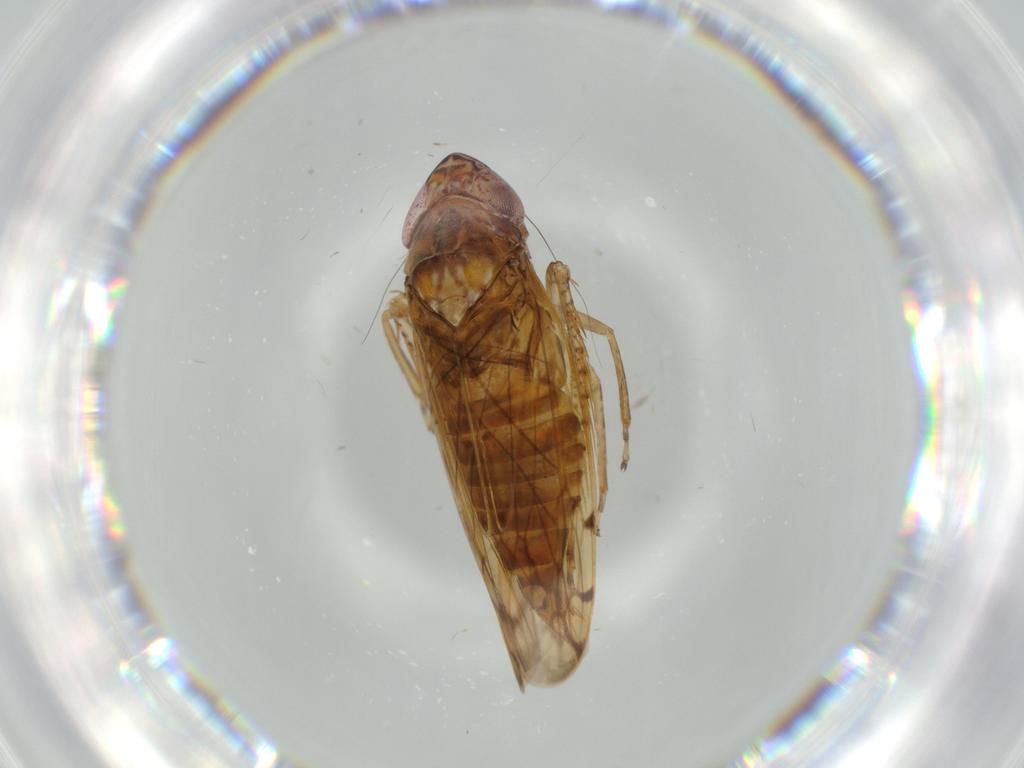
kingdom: Animalia
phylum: Arthropoda
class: Insecta
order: Hemiptera
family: Cicadellidae
